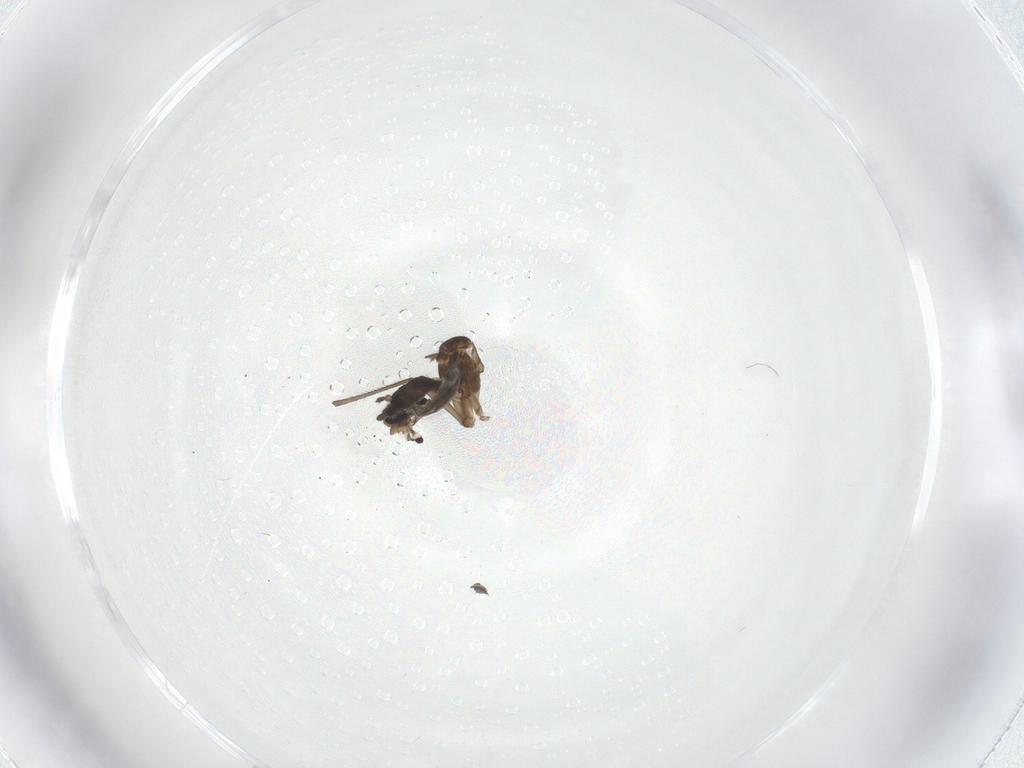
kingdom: Animalia
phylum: Arthropoda
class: Insecta
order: Diptera
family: Sciaridae
